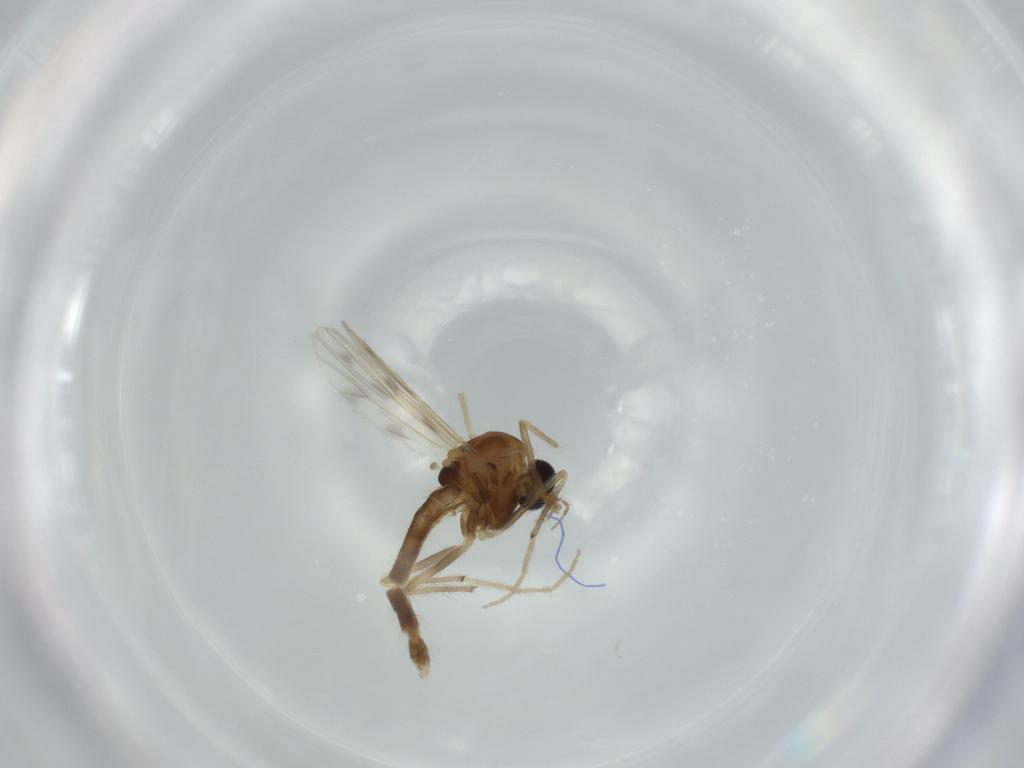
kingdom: Animalia
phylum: Arthropoda
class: Insecta
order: Diptera
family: Chironomidae
